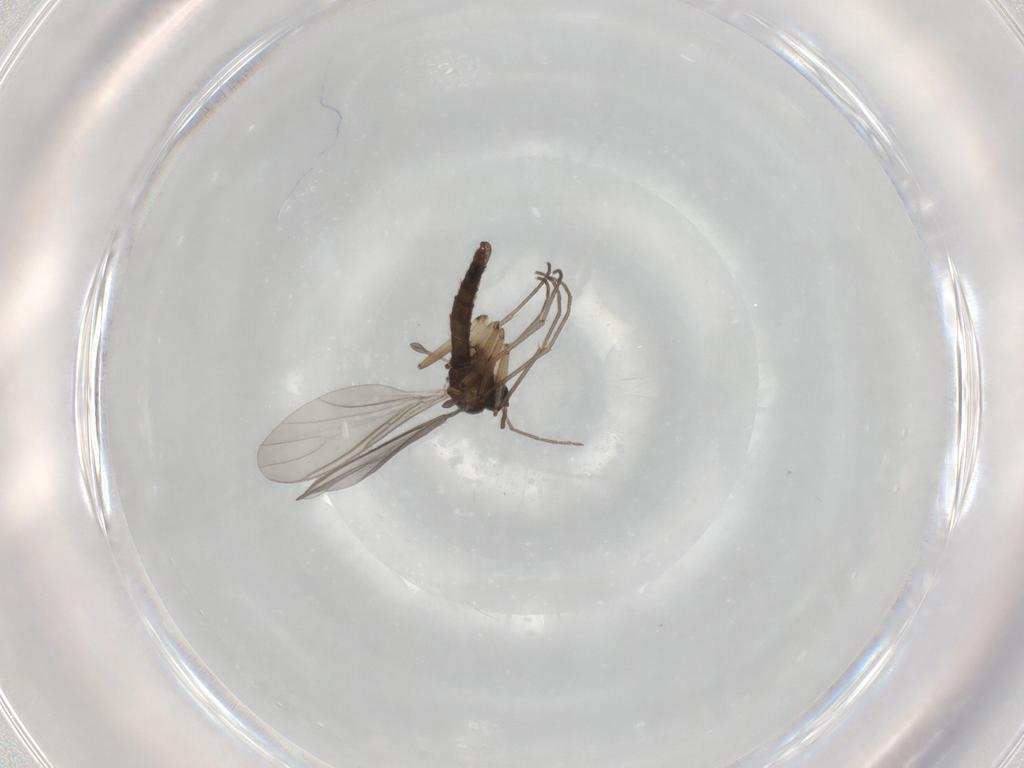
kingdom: Animalia
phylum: Arthropoda
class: Insecta
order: Diptera
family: Sciaridae
